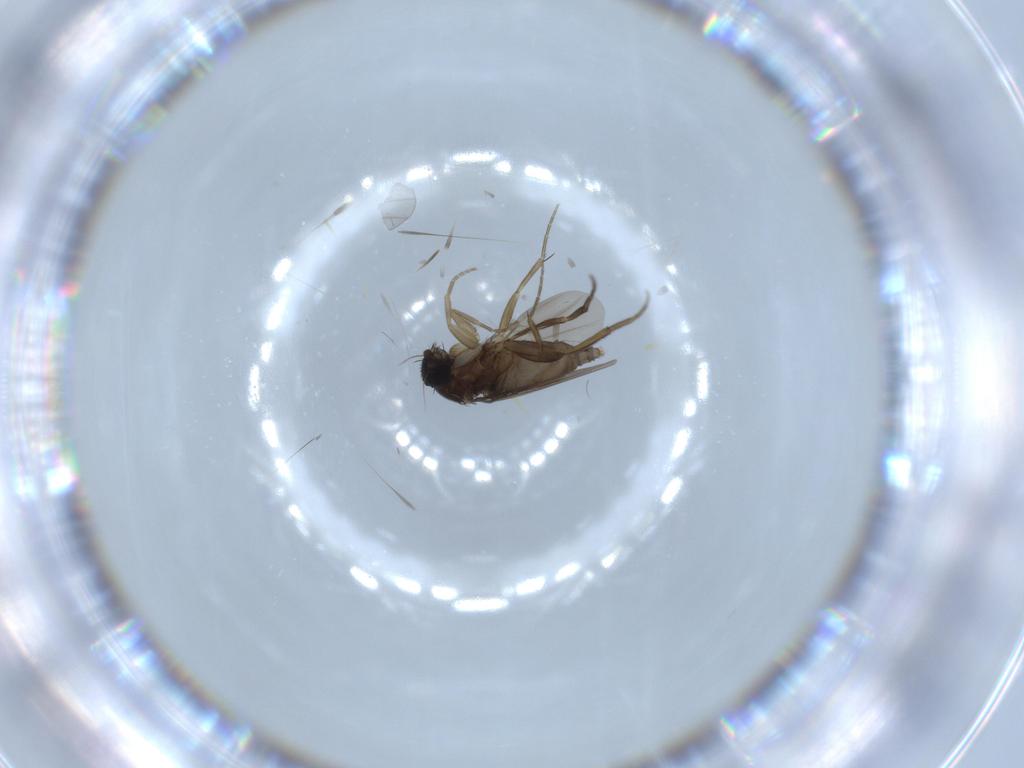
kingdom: Animalia
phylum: Arthropoda
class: Insecta
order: Diptera
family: Phoridae
